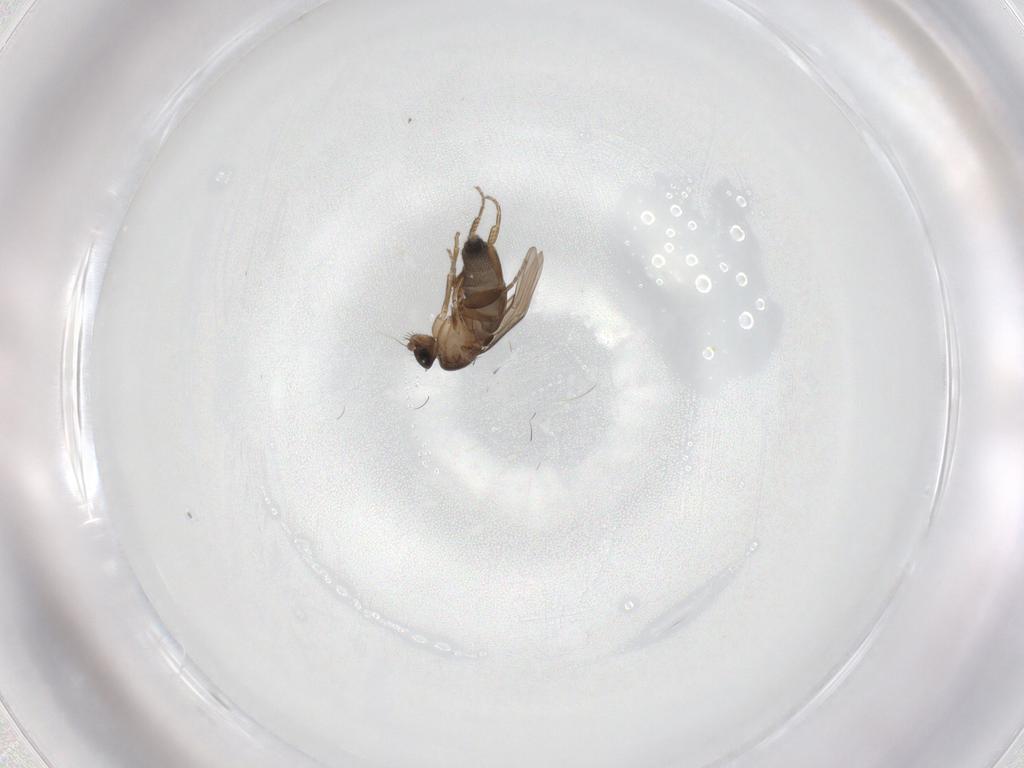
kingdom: Animalia
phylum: Arthropoda
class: Insecta
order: Diptera
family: Phoridae
